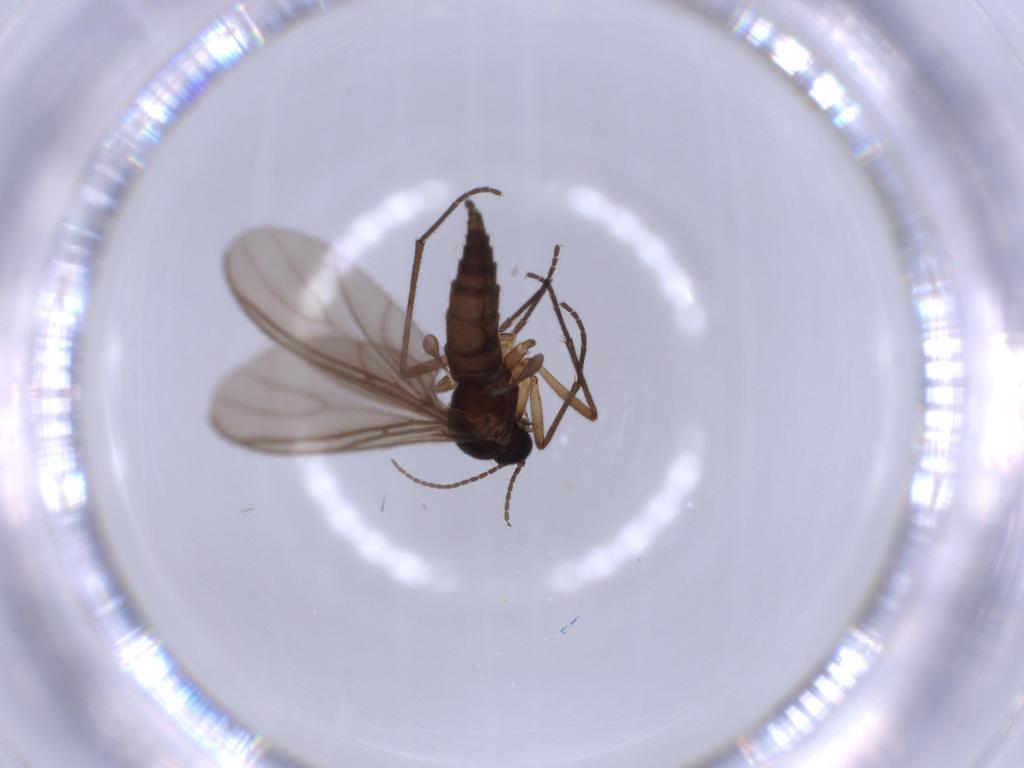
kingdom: Animalia
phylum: Arthropoda
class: Insecta
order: Diptera
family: Sciaridae
